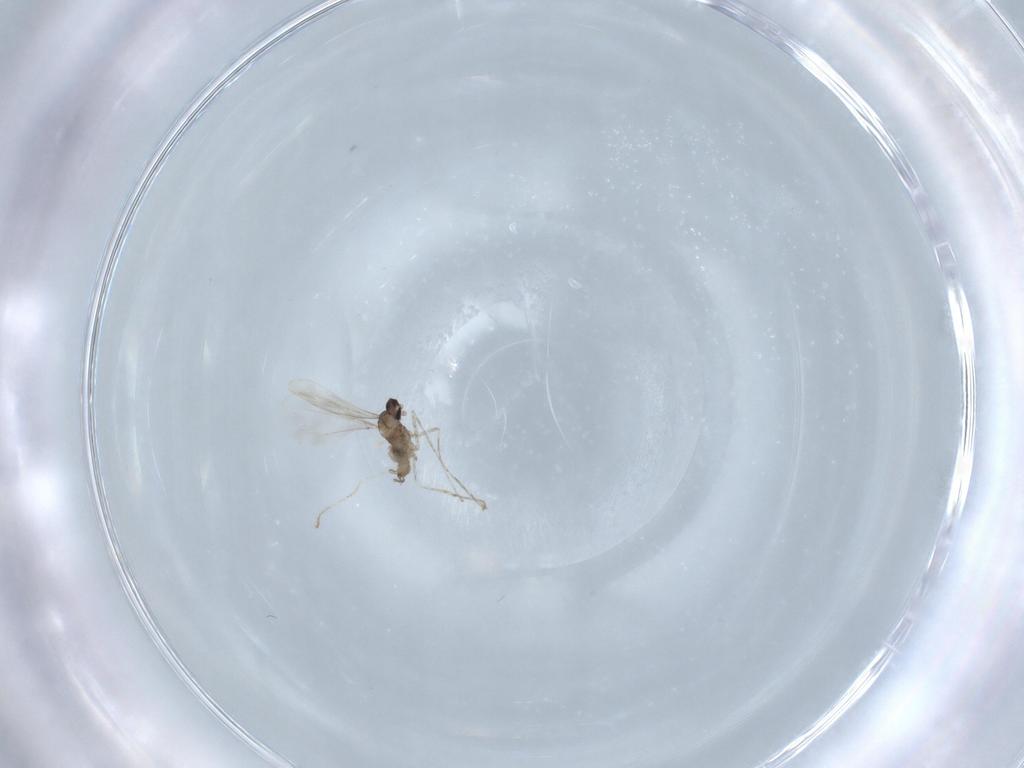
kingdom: Animalia
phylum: Arthropoda
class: Insecta
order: Diptera
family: Cecidomyiidae
